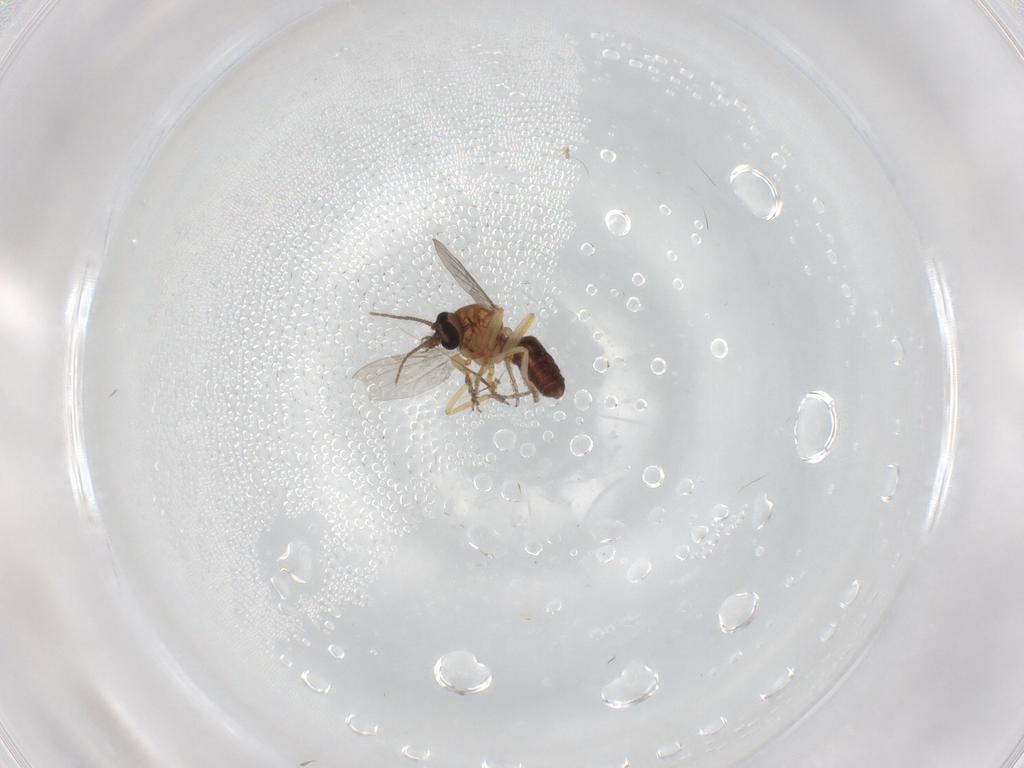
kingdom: Animalia
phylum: Arthropoda
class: Insecta
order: Diptera
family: Ceratopogonidae
